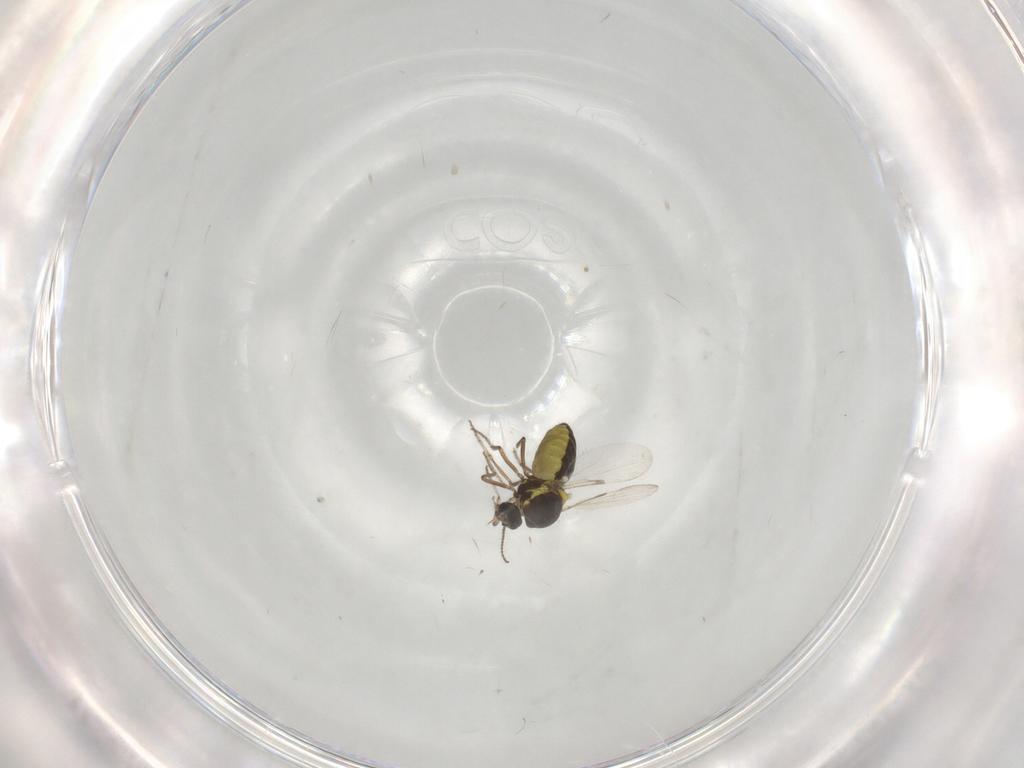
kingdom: Animalia
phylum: Arthropoda
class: Insecta
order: Diptera
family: Ceratopogonidae
